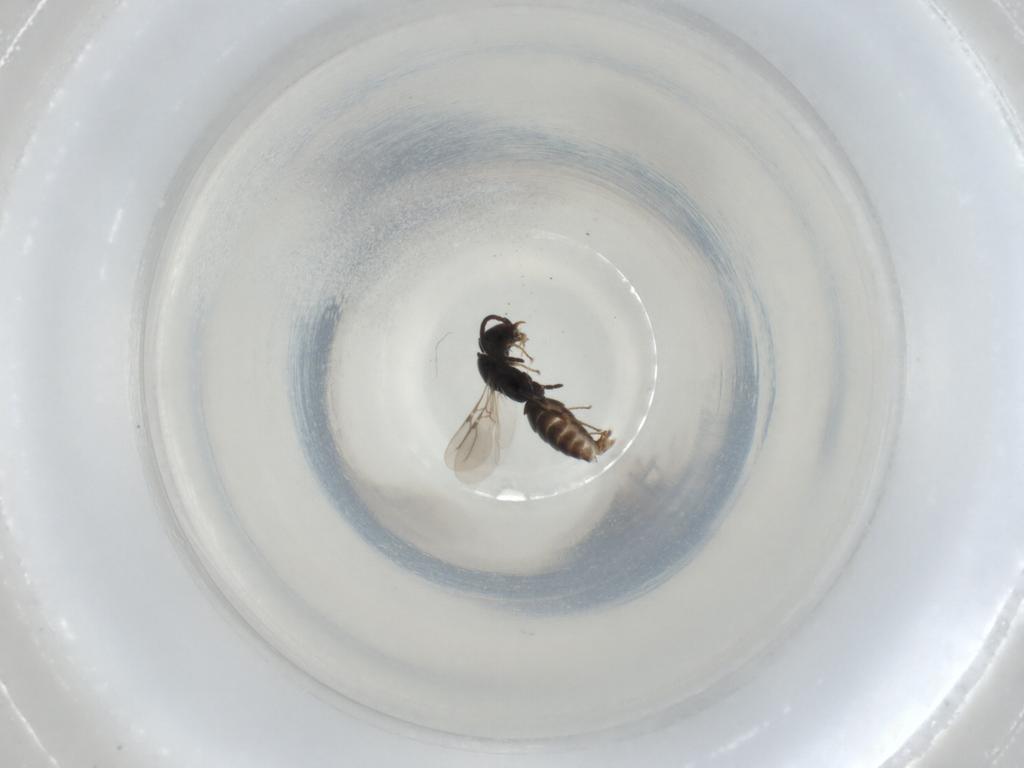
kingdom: Animalia
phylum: Arthropoda
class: Insecta
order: Hymenoptera
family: Bethylidae
